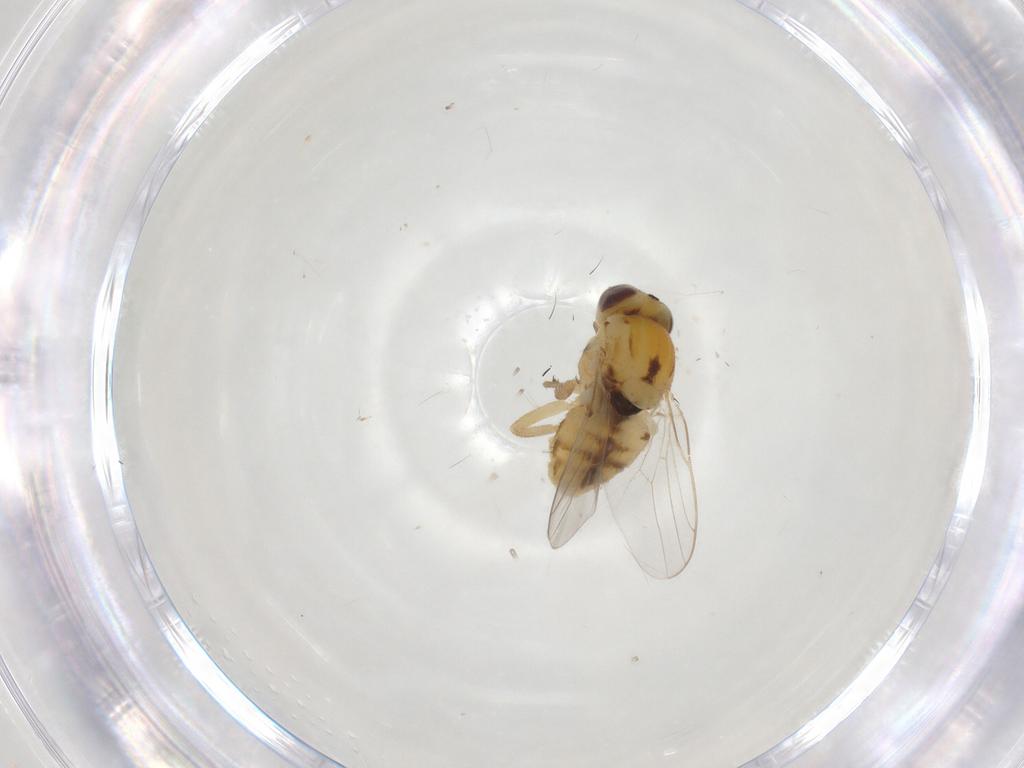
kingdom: Animalia
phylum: Arthropoda
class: Insecta
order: Diptera
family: Chloropidae
